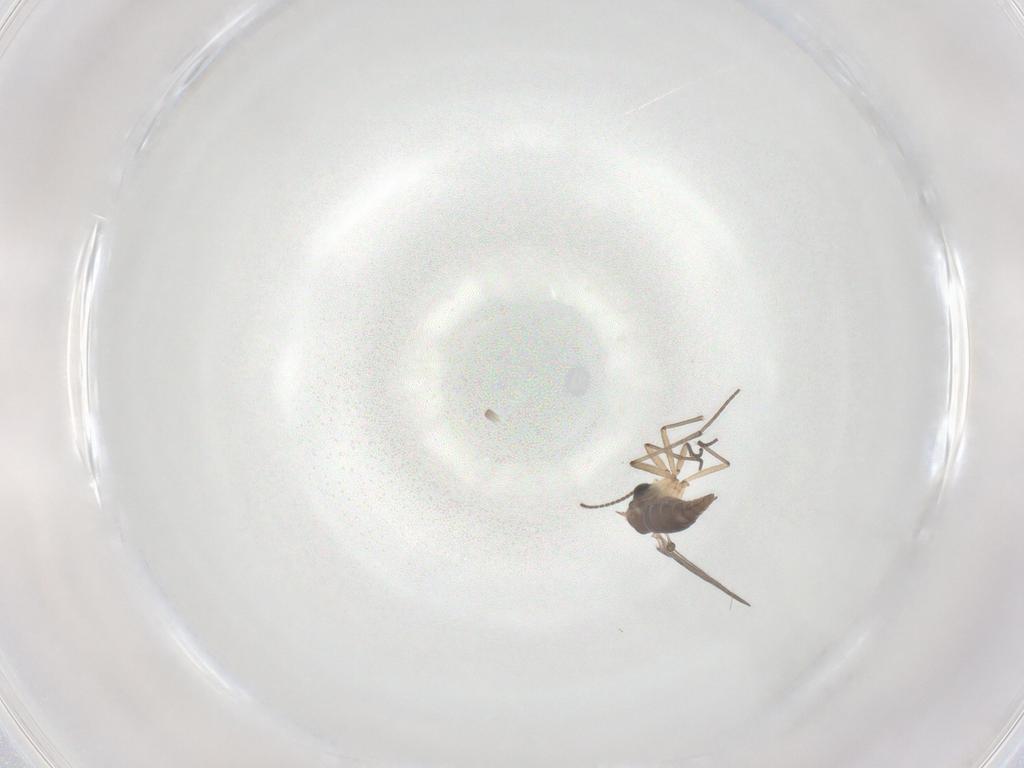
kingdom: Animalia
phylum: Arthropoda
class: Insecta
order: Diptera
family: Sciaridae
